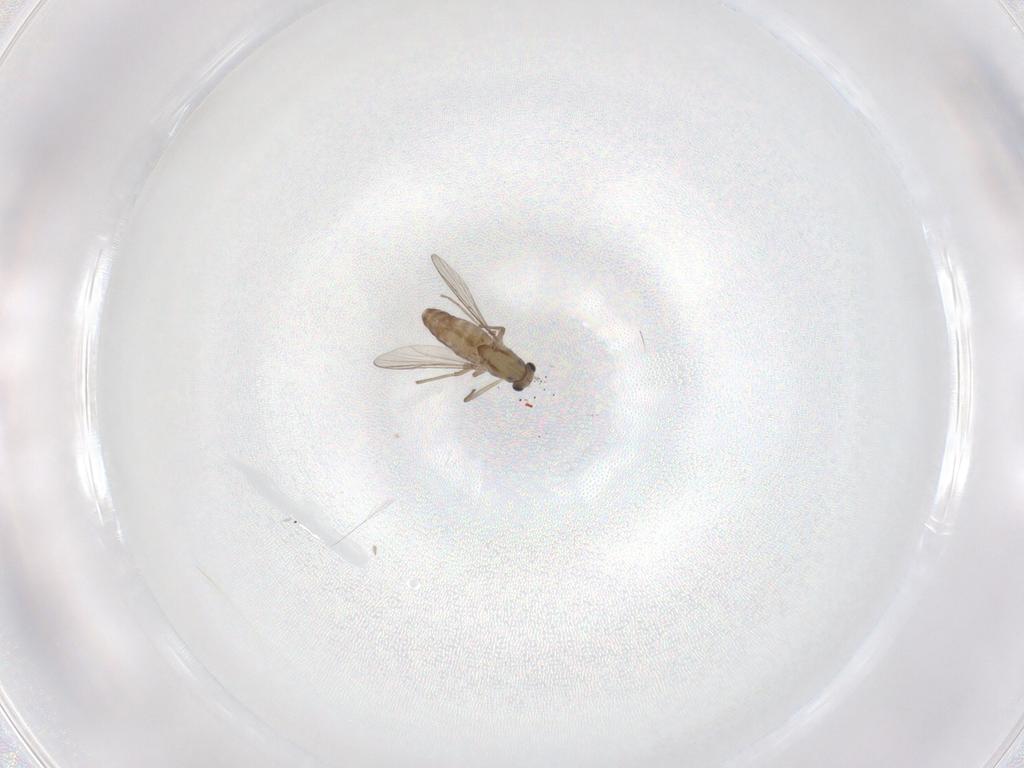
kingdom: Animalia
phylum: Arthropoda
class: Insecta
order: Diptera
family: Chironomidae
